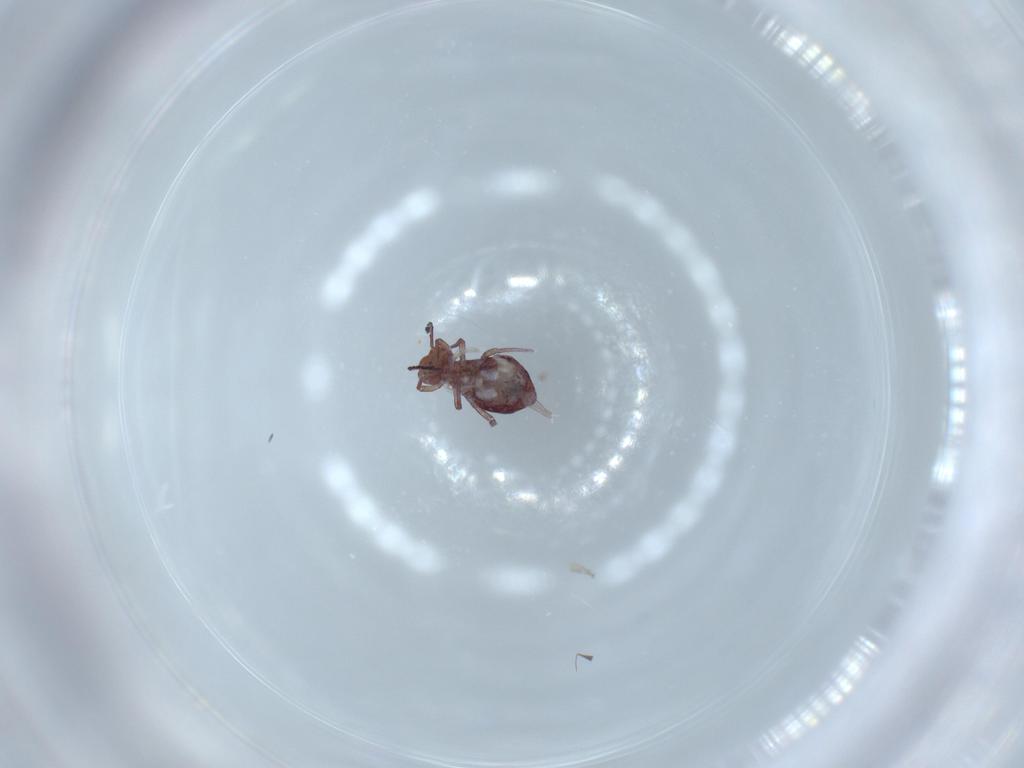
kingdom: Animalia
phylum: Arthropoda
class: Collembola
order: Symphypleona
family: Dicyrtomidae
